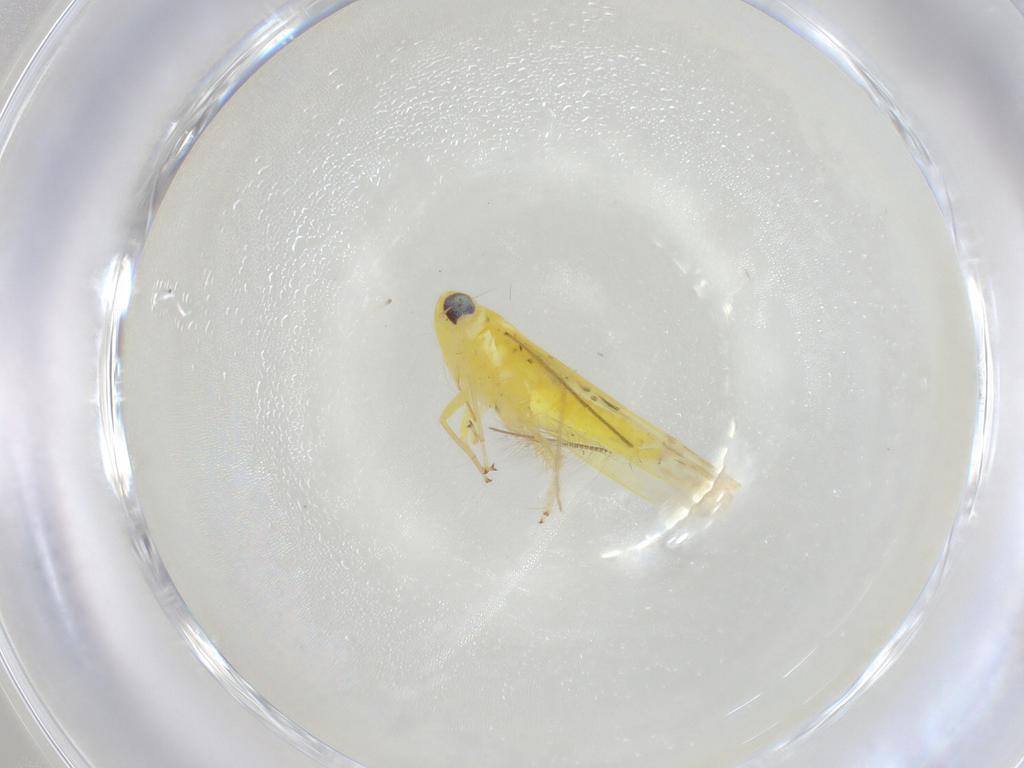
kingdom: Animalia
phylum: Arthropoda
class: Insecta
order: Hemiptera
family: Cicadellidae
